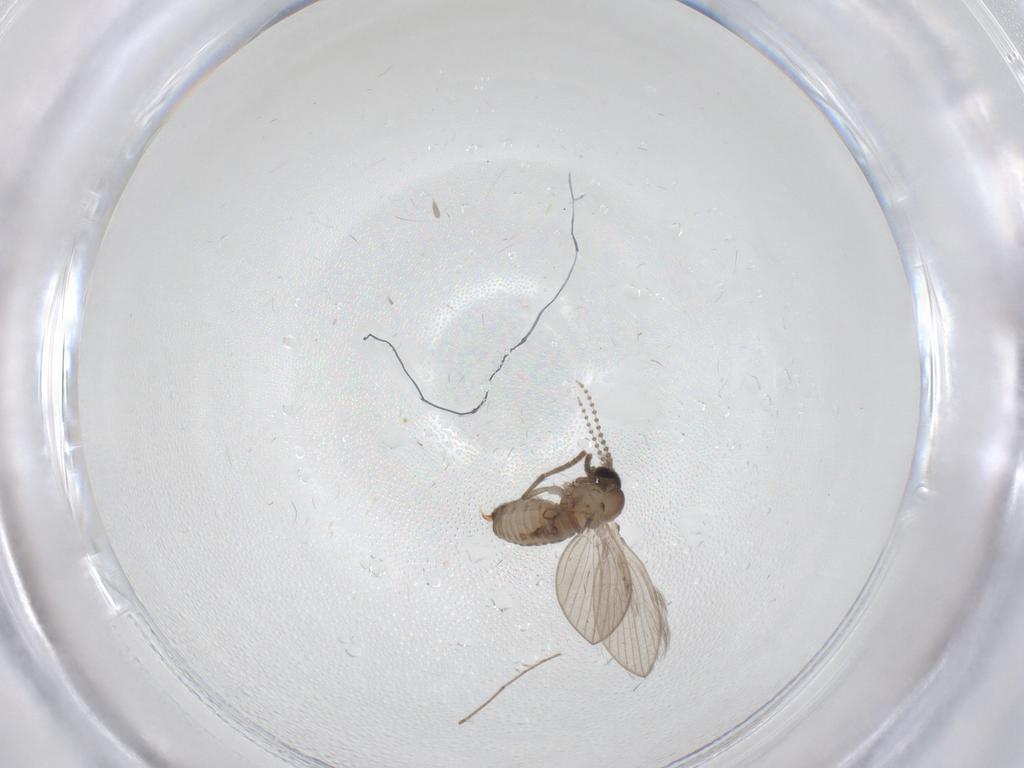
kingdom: Animalia
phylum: Arthropoda
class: Insecta
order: Diptera
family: Psychodidae
